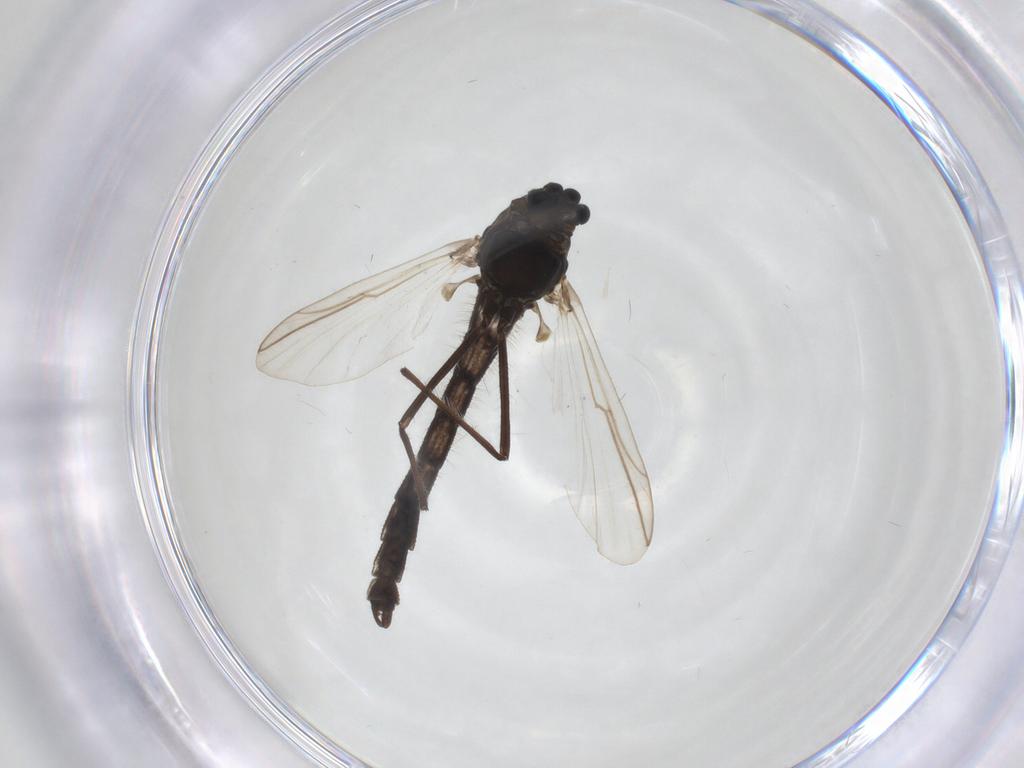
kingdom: Animalia
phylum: Arthropoda
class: Insecta
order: Diptera
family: Chironomidae
